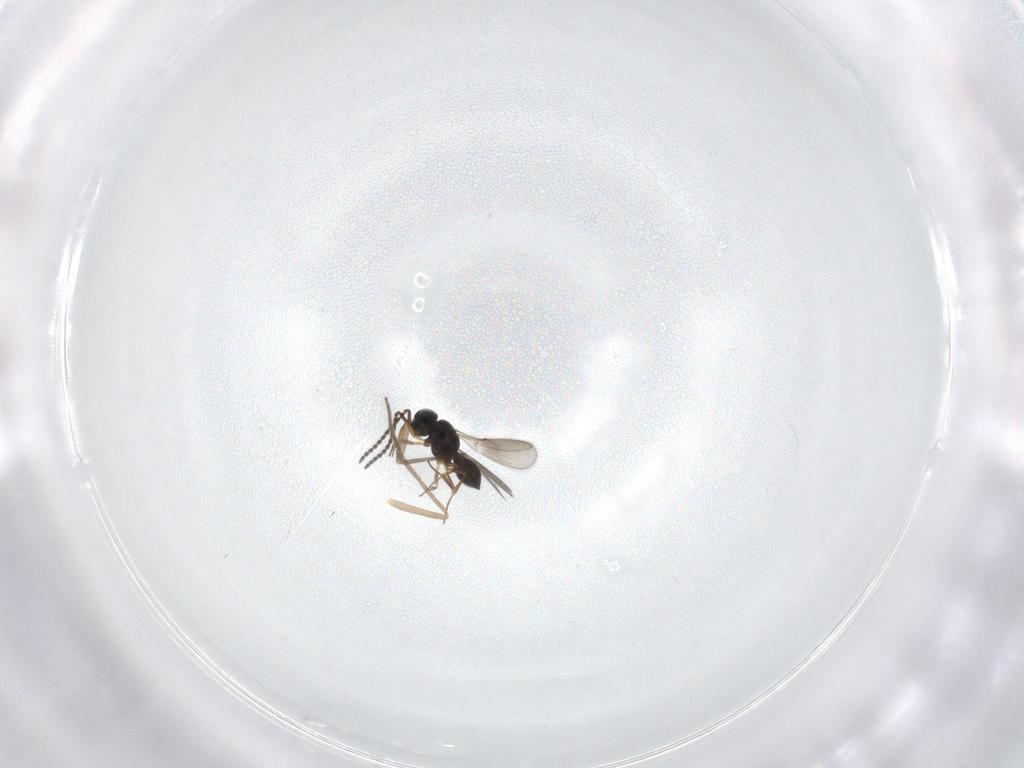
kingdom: Animalia
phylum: Arthropoda
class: Insecta
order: Hymenoptera
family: Scelionidae
